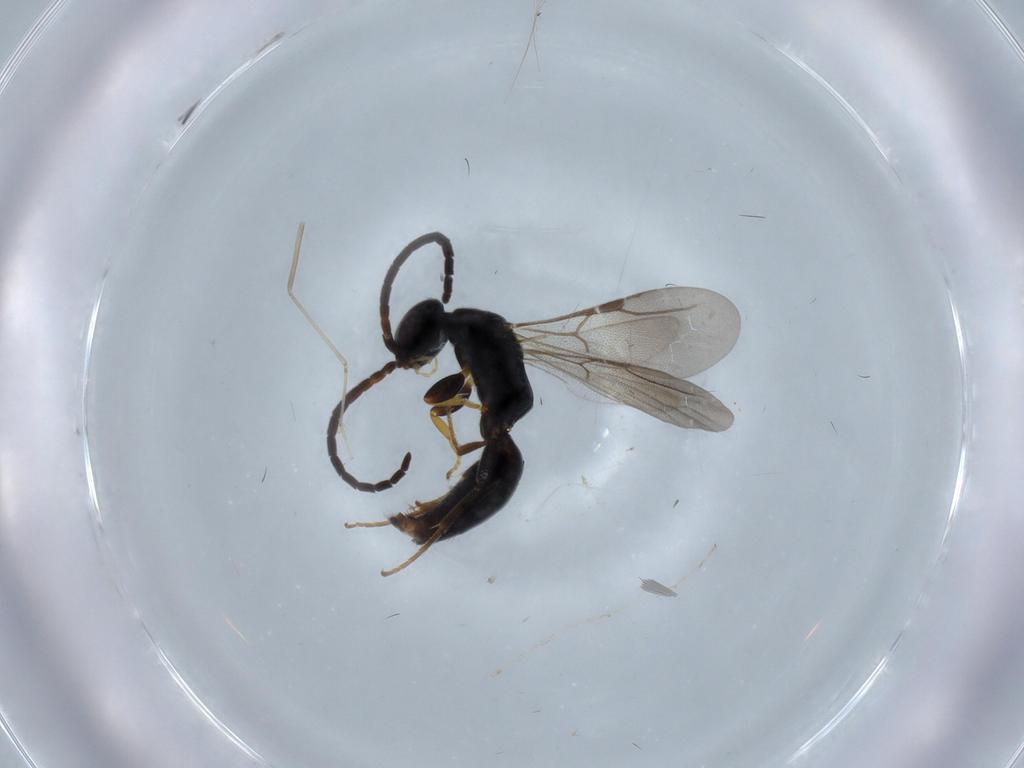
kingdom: Animalia
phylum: Arthropoda
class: Insecta
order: Hymenoptera
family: Bethylidae
